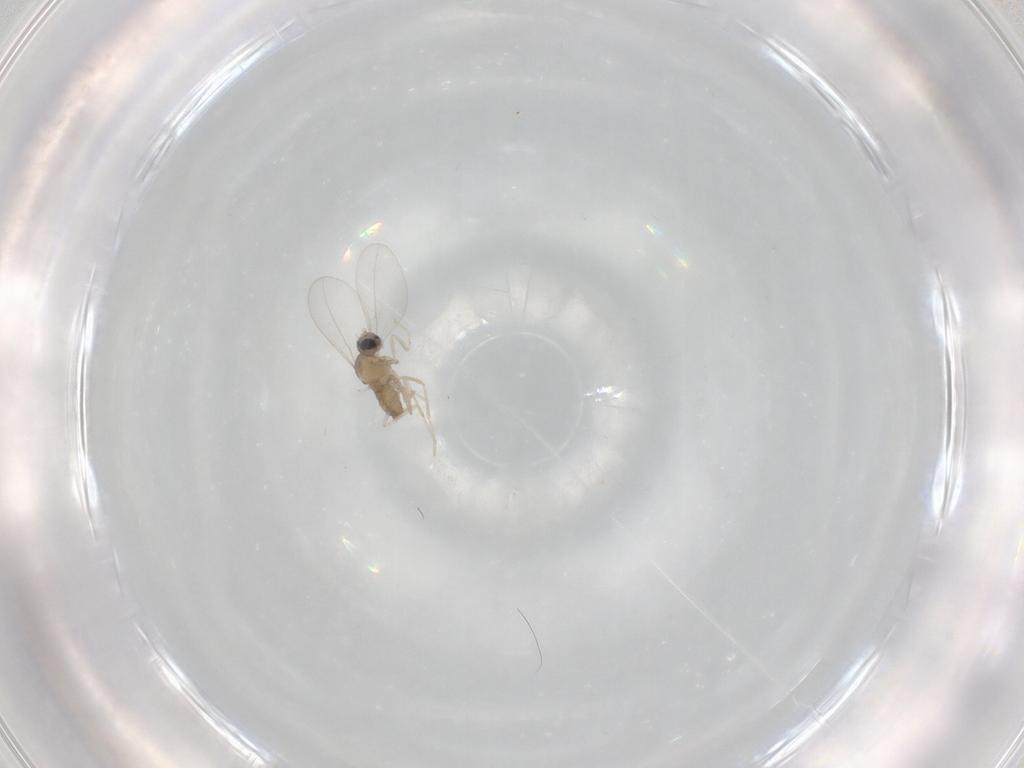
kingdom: Animalia
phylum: Arthropoda
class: Insecta
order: Diptera
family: Cecidomyiidae
